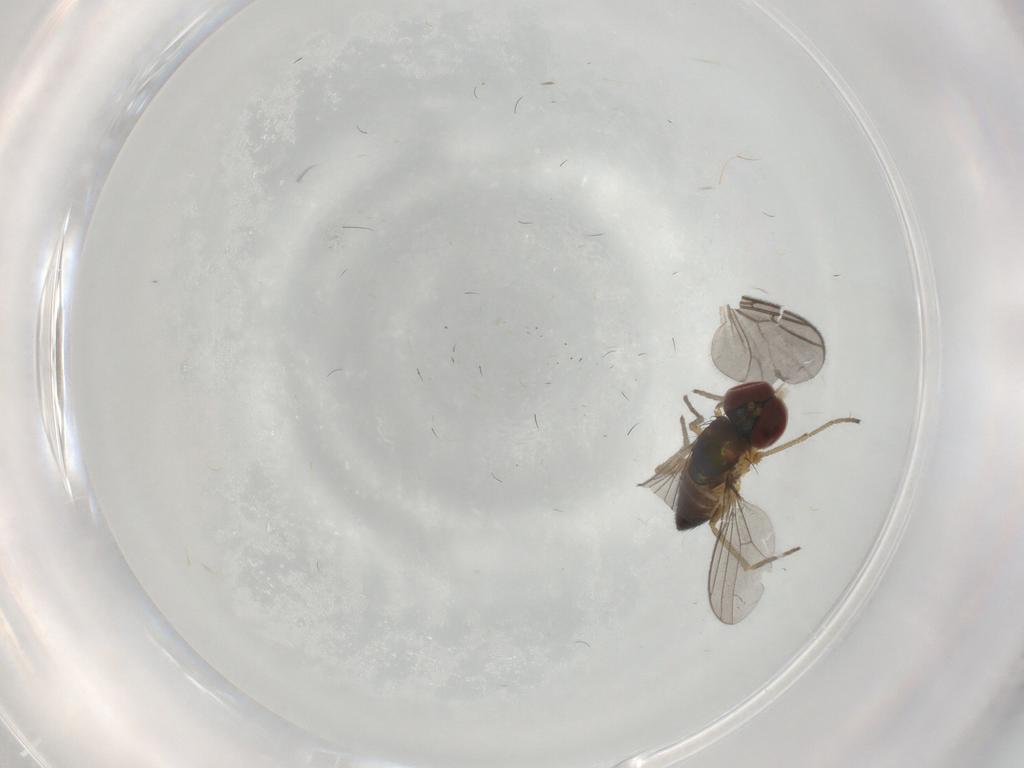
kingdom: Animalia
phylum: Arthropoda
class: Insecta
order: Diptera
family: Dolichopodidae
